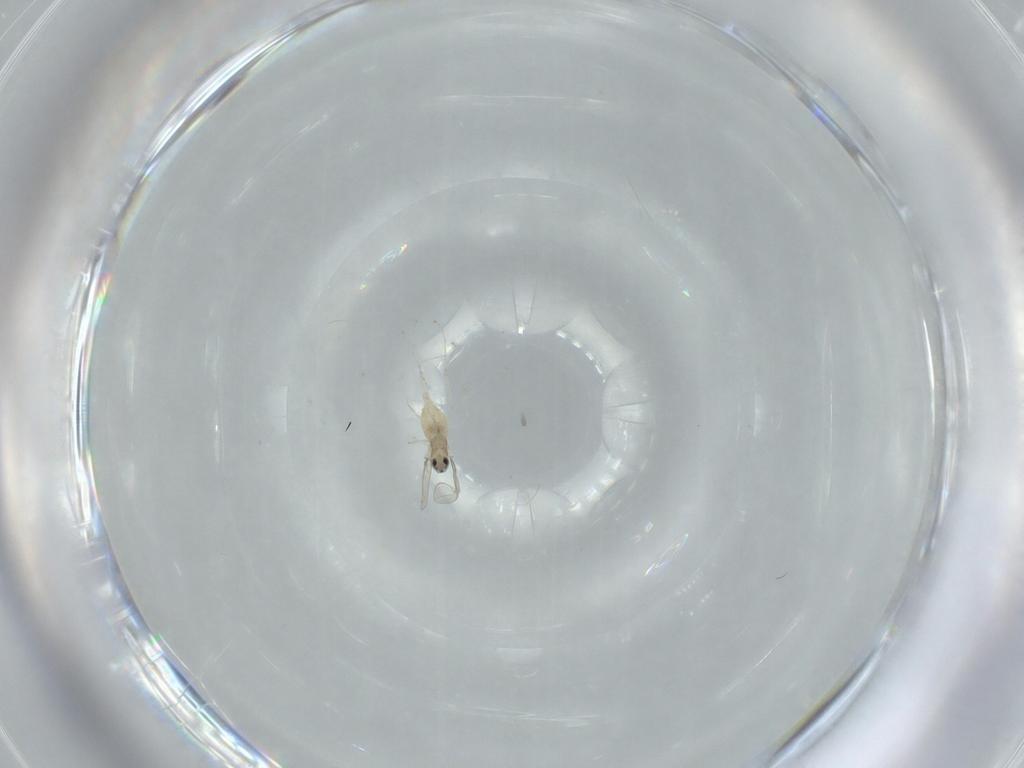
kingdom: Animalia
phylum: Arthropoda
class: Insecta
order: Diptera
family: Cecidomyiidae
